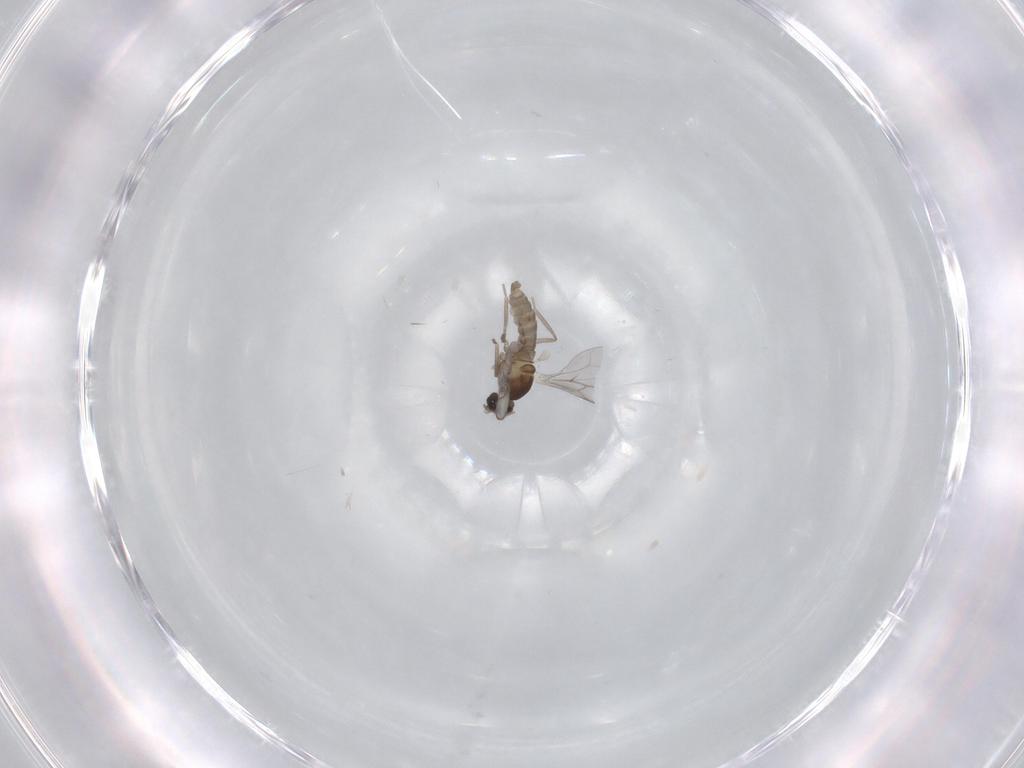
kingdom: Animalia
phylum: Arthropoda
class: Insecta
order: Diptera
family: Cecidomyiidae
